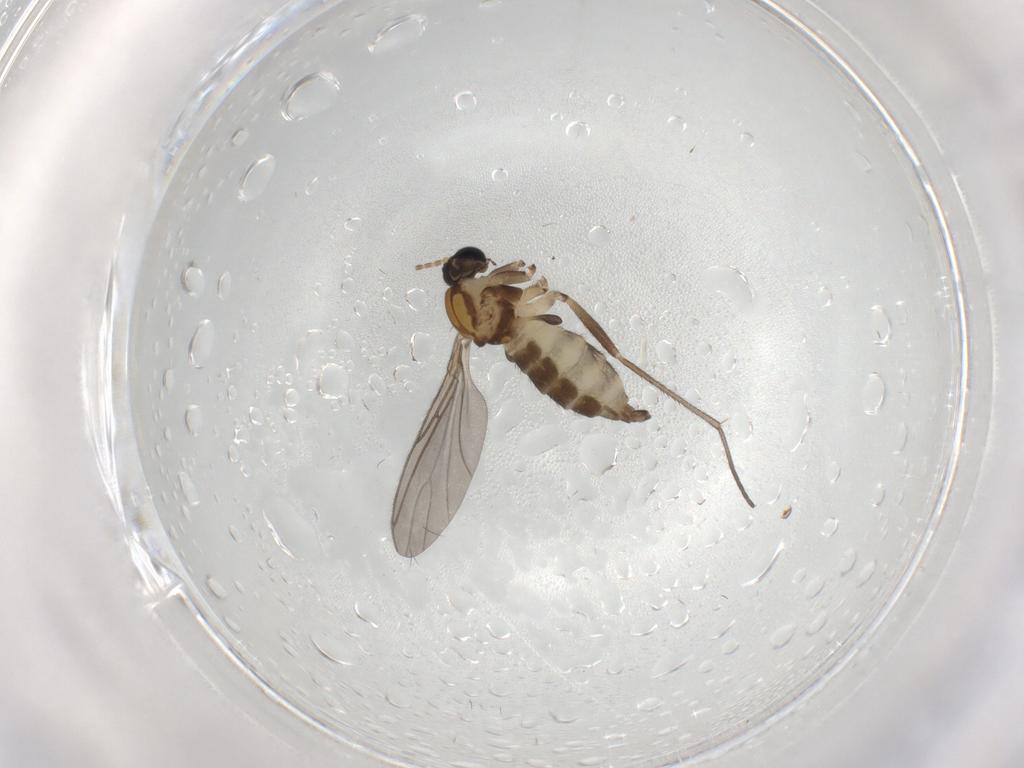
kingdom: Animalia
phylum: Arthropoda
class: Insecta
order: Diptera
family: Sciaridae
